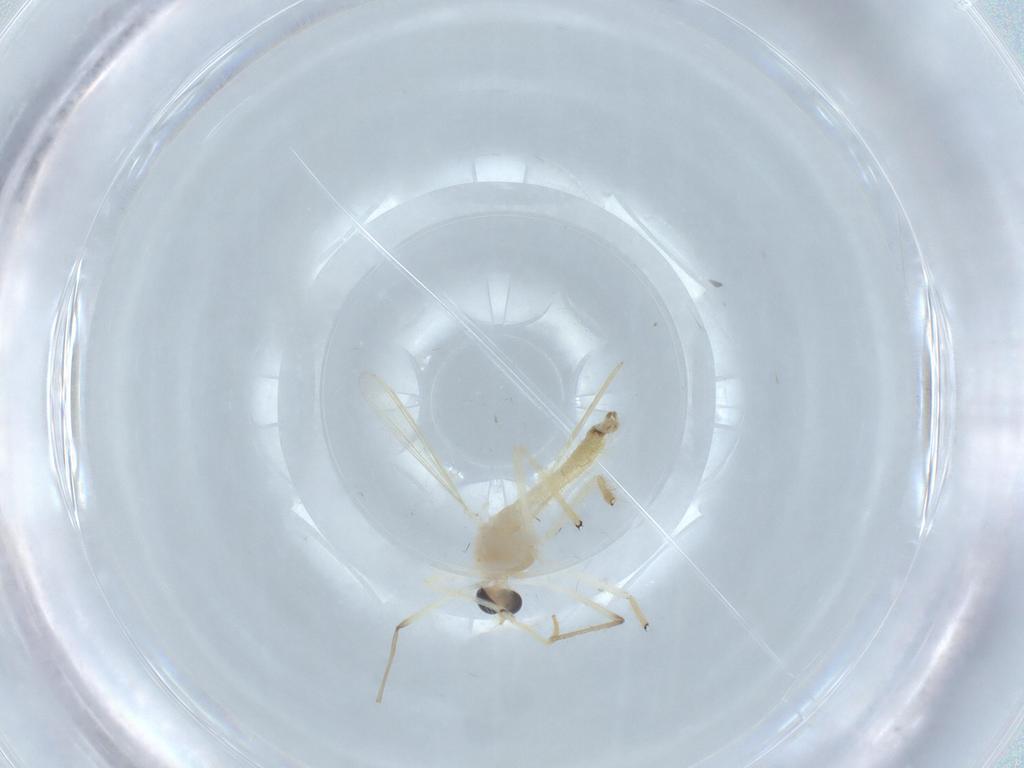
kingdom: Animalia
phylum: Arthropoda
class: Insecta
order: Diptera
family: Chironomidae
